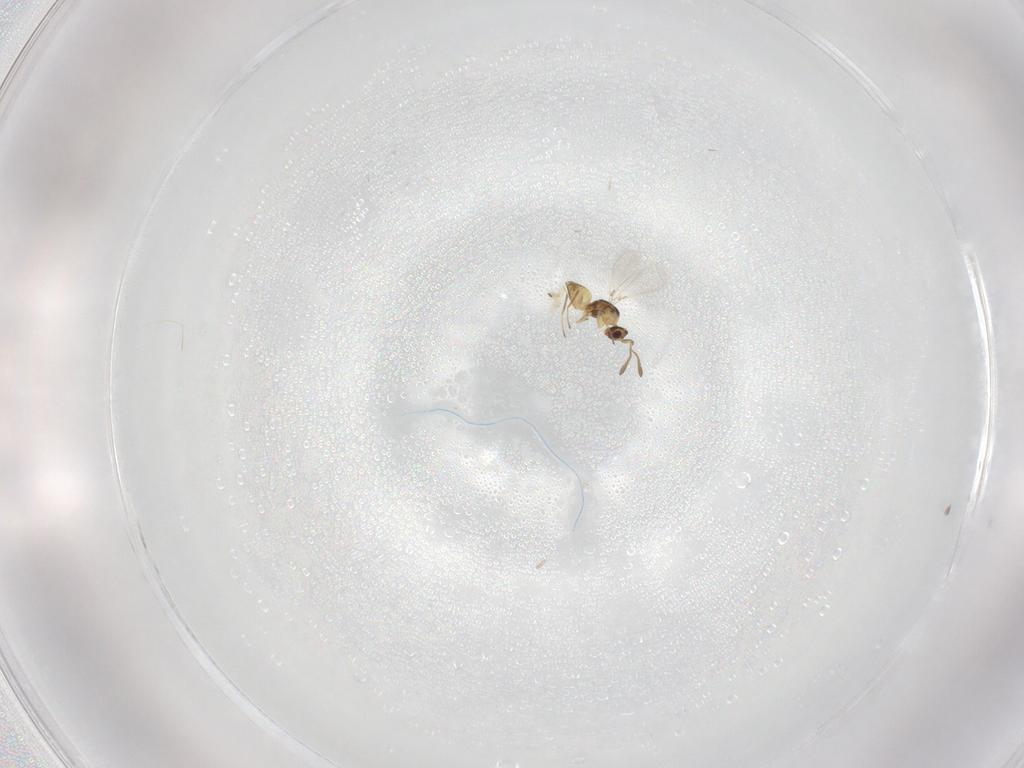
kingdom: Animalia
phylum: Arthropoda
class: Insecta
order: Hymenoptera
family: Mymaridae
